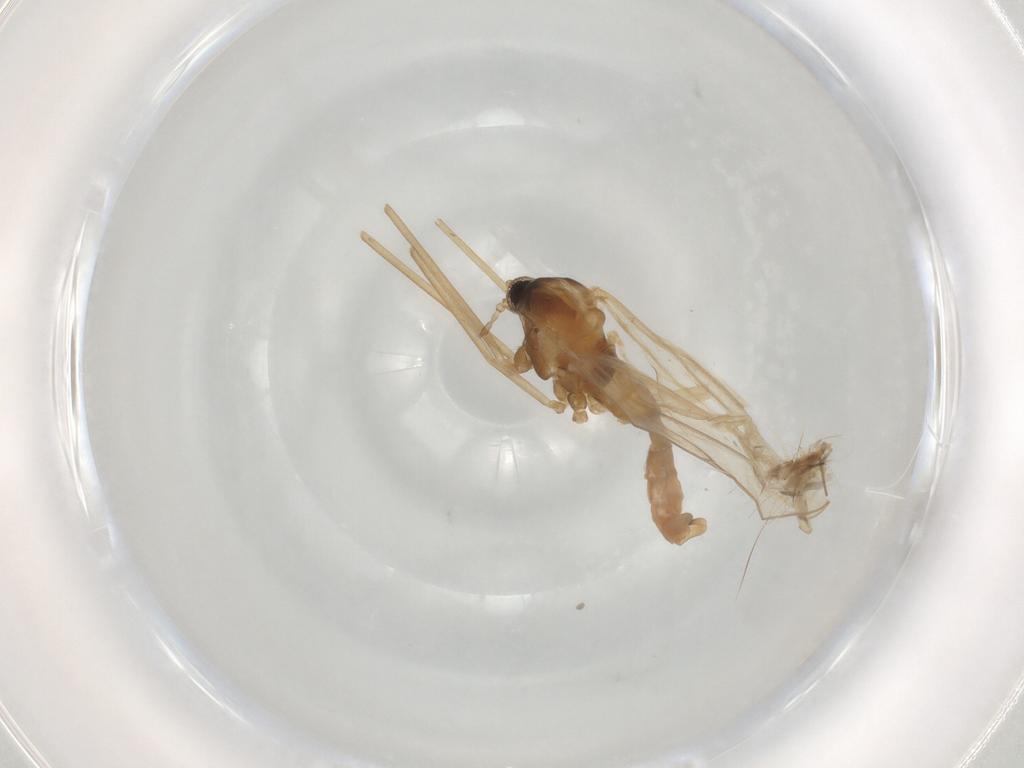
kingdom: Animalia
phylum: Arthropoda
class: Insecta
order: Diptera
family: Cecidomyiidae
